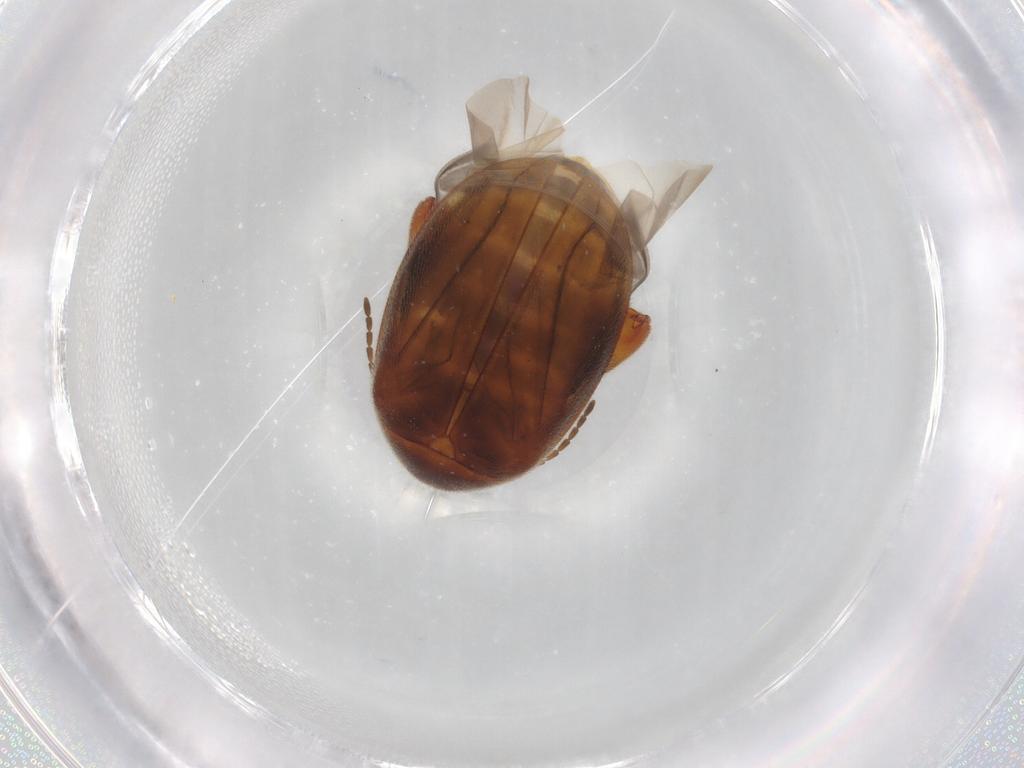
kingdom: Animalia
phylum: Arthropoda
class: Insecta
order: Coleoptera
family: Scirtidae
